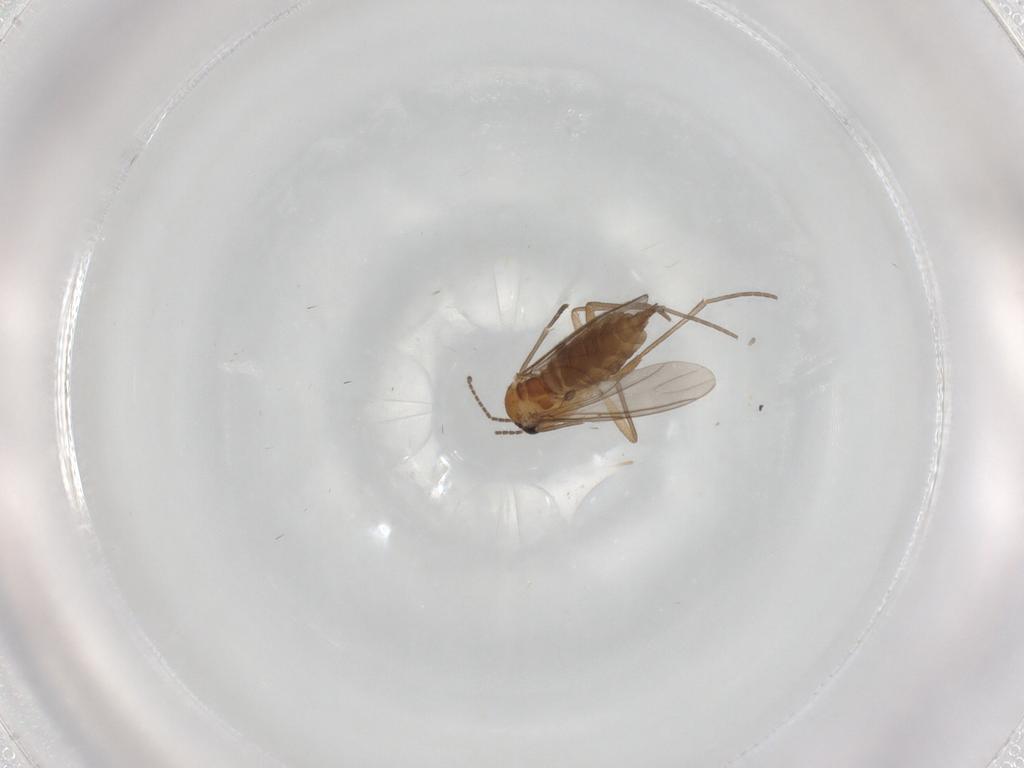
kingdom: Animalia
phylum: Arthropoda
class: Insecta
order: Diptera
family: Sciaridae
